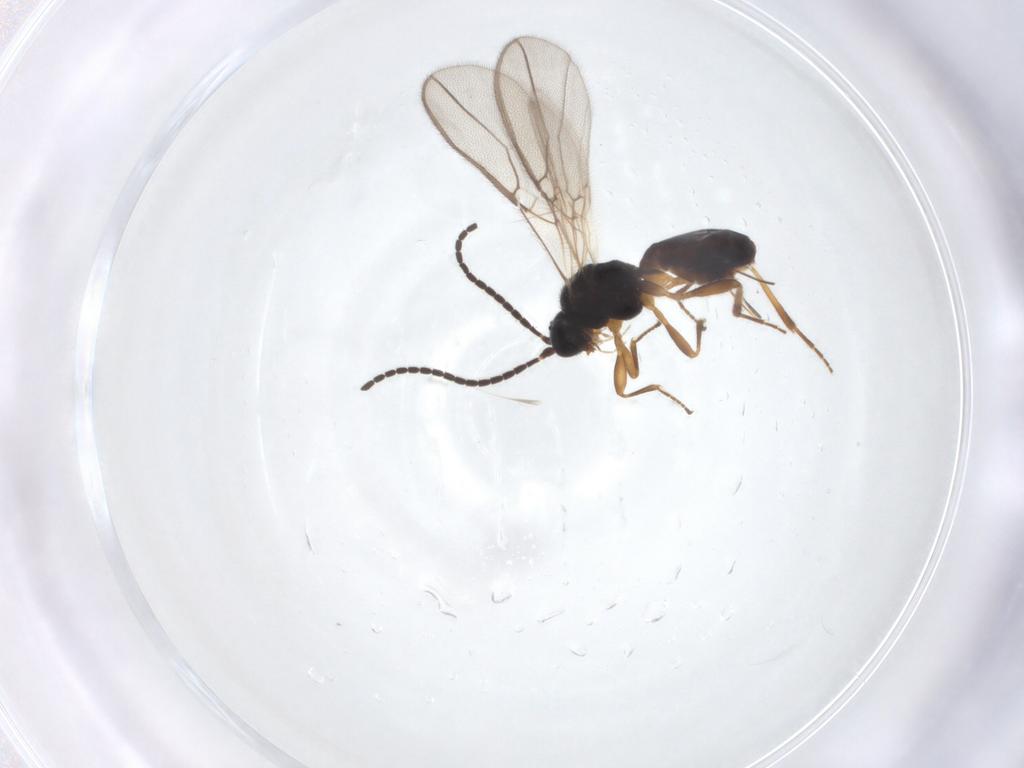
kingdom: Animalia
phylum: Arthropoda
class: Insecta
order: Hymenoptera
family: Braconidae
